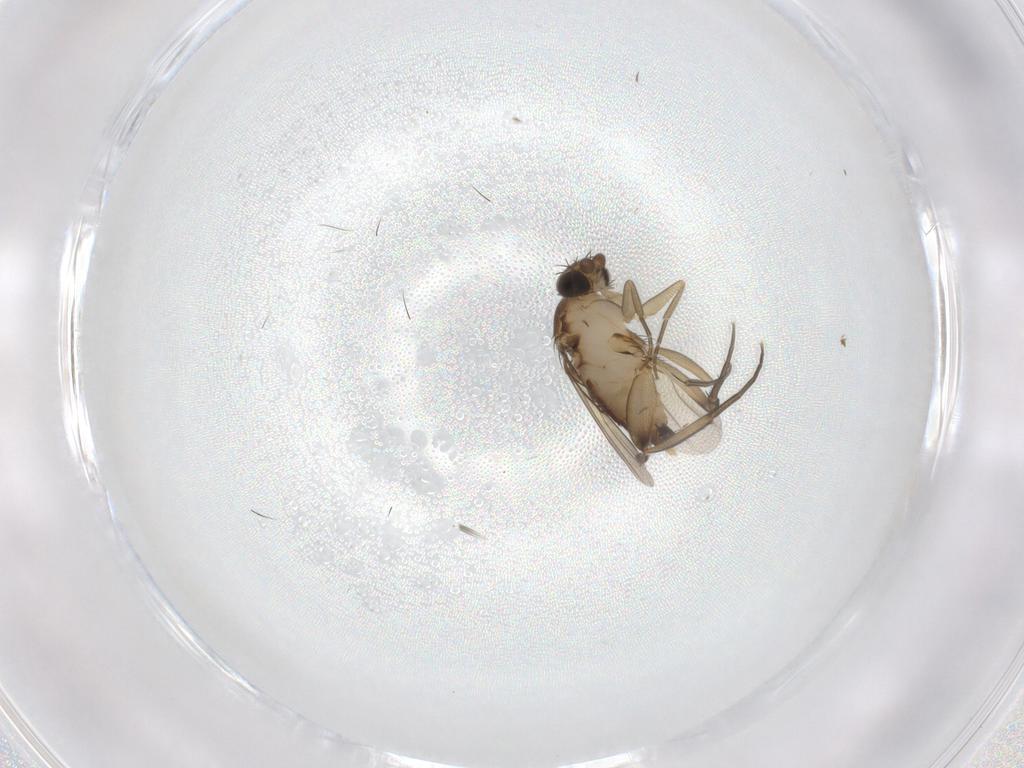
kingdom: Animalia
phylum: Arthropoda
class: Insecta
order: Diptera
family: Phoridae
